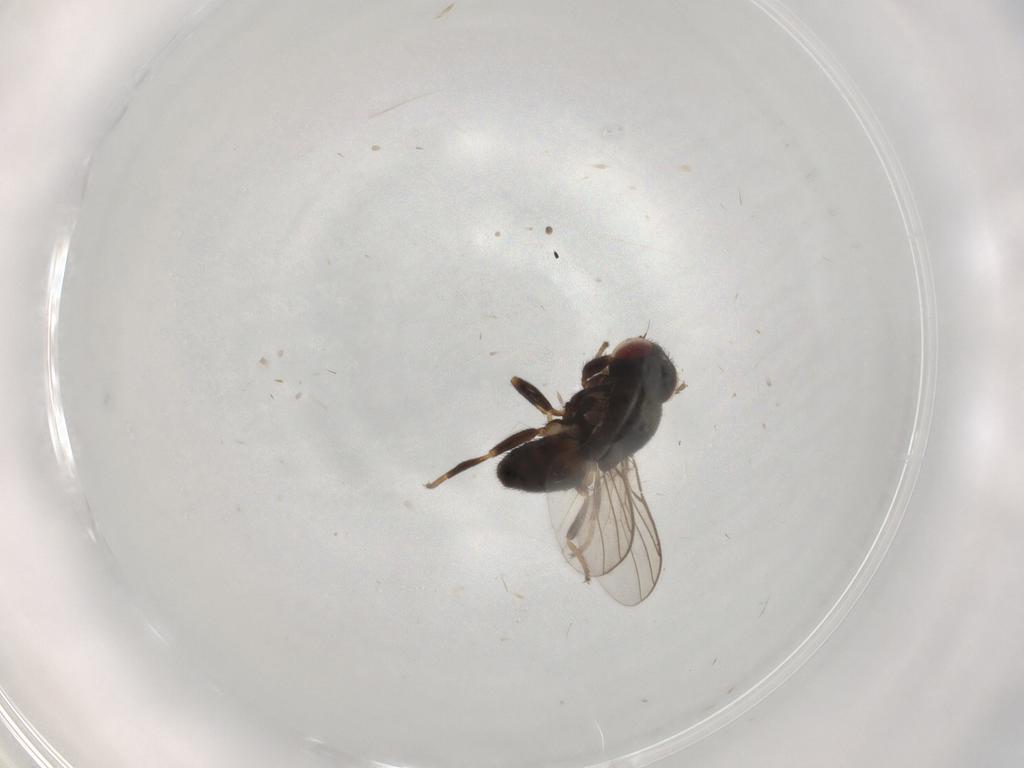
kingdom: Animalia
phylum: Arthropoda
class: Insecta
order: Diptera
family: Chloropidae
